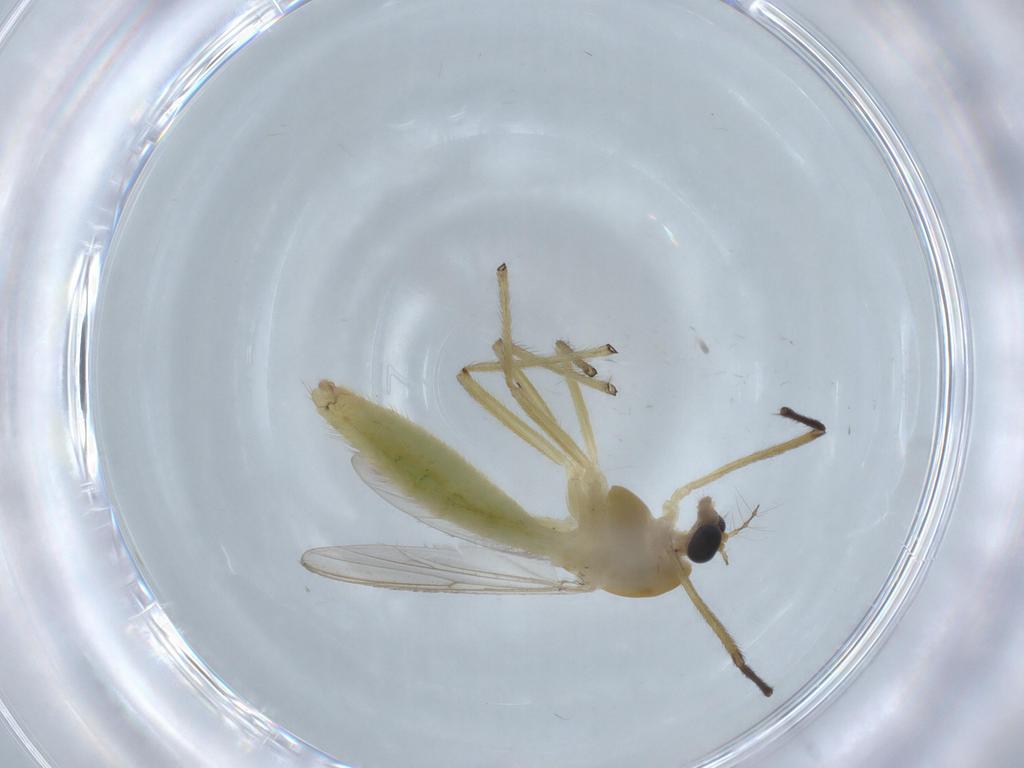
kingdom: Animalia
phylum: Arthropoda
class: Insecta
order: Diptera
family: Chironomidae
